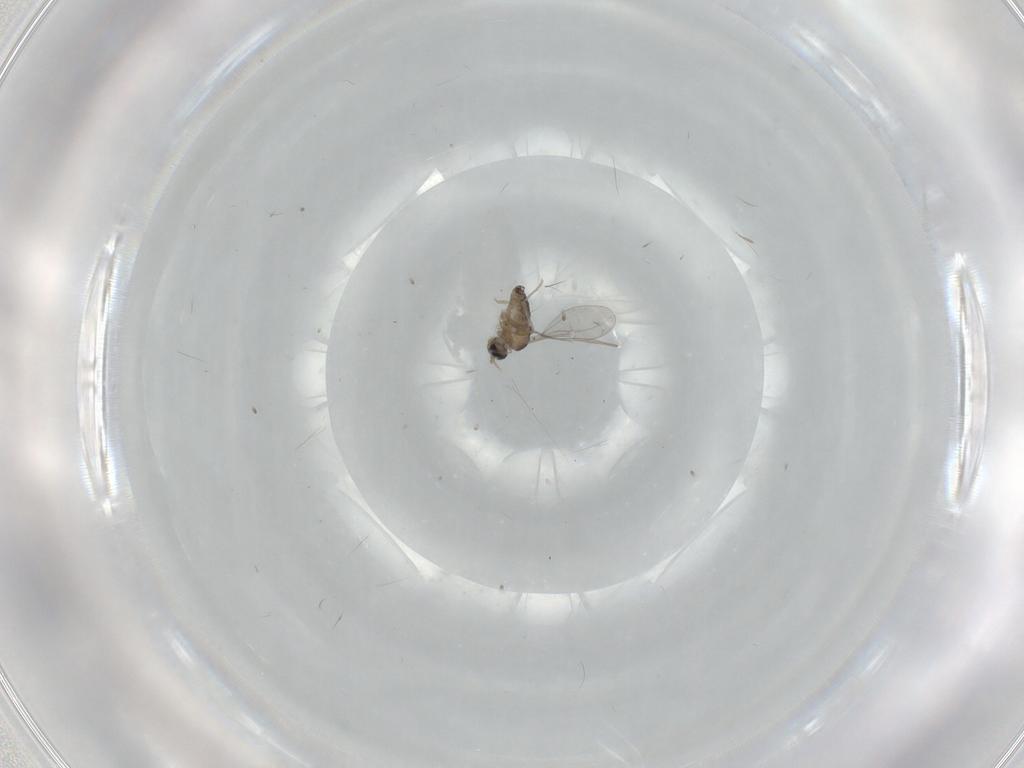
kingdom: Animalia
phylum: Arthropoda
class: Insecta
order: Diptera
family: Cecidomyiidae
